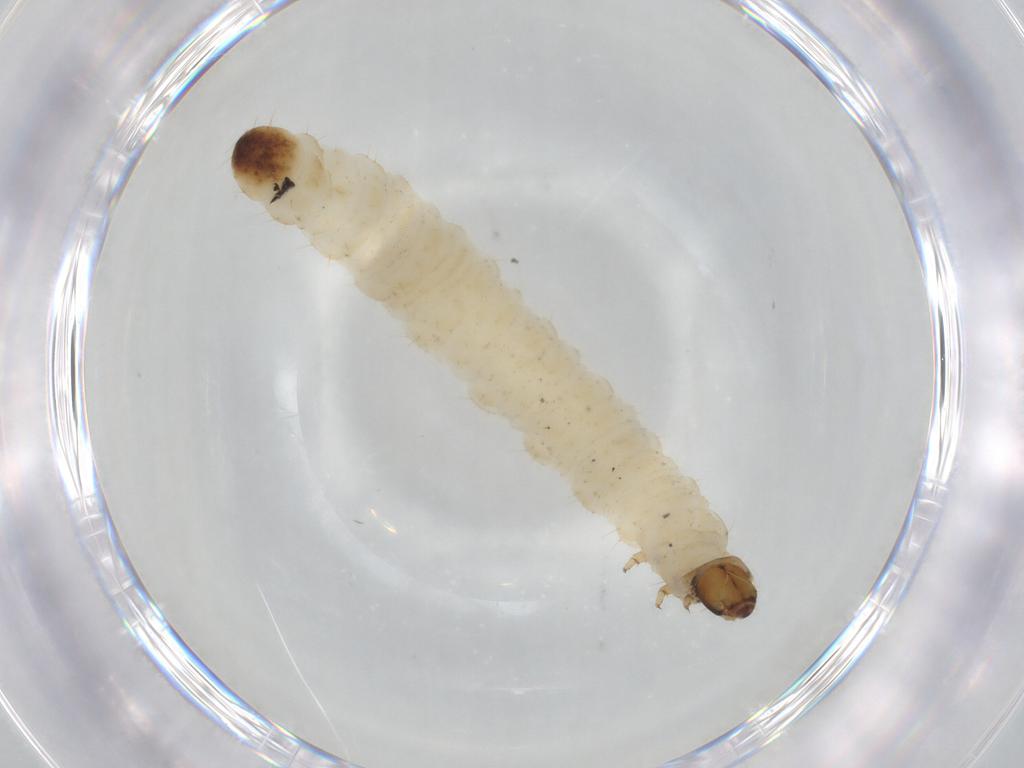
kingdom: Animalia
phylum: Arthropoda
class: Insecta
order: Coleoptera
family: Chrysomelidae
